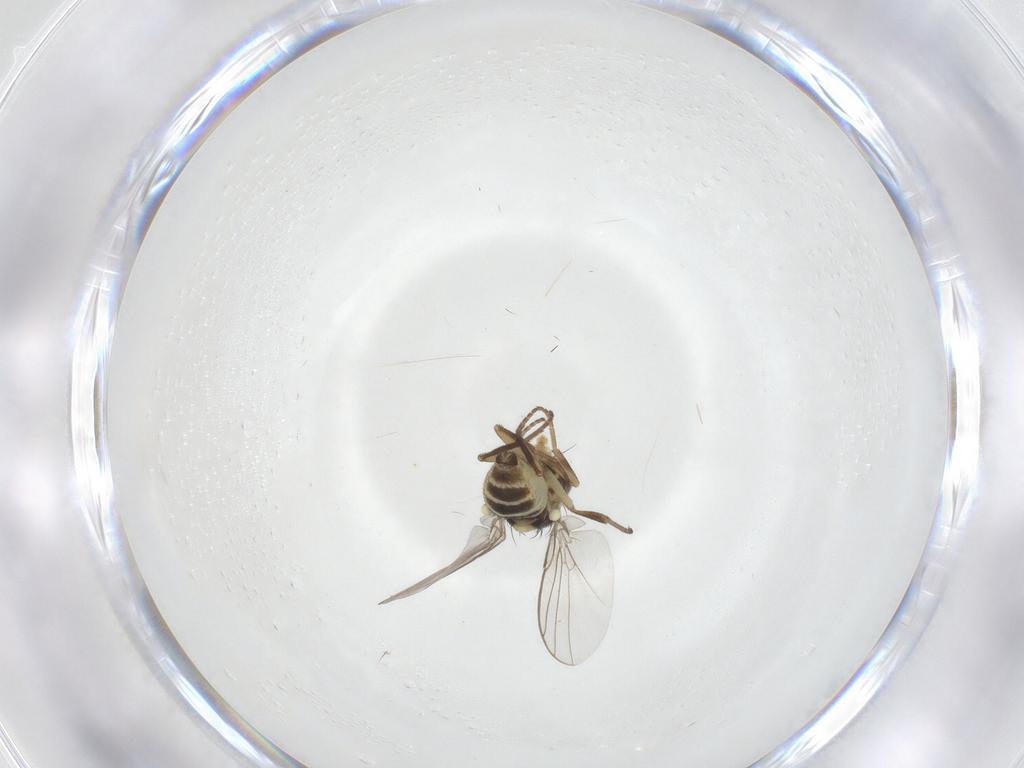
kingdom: Animalia
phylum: Arthropoda
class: Insecta
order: Diptera
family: Agromyzidae
